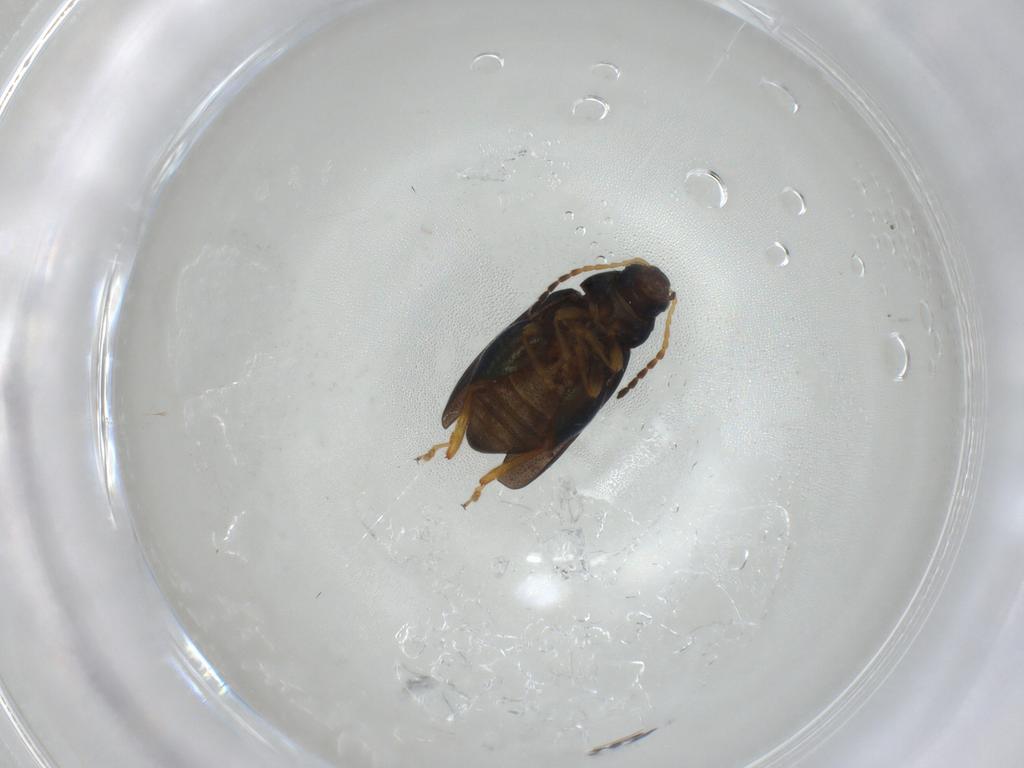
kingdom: Animalia
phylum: Arthropoda
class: Insecta
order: Coleoptera
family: Chrysomelidae
